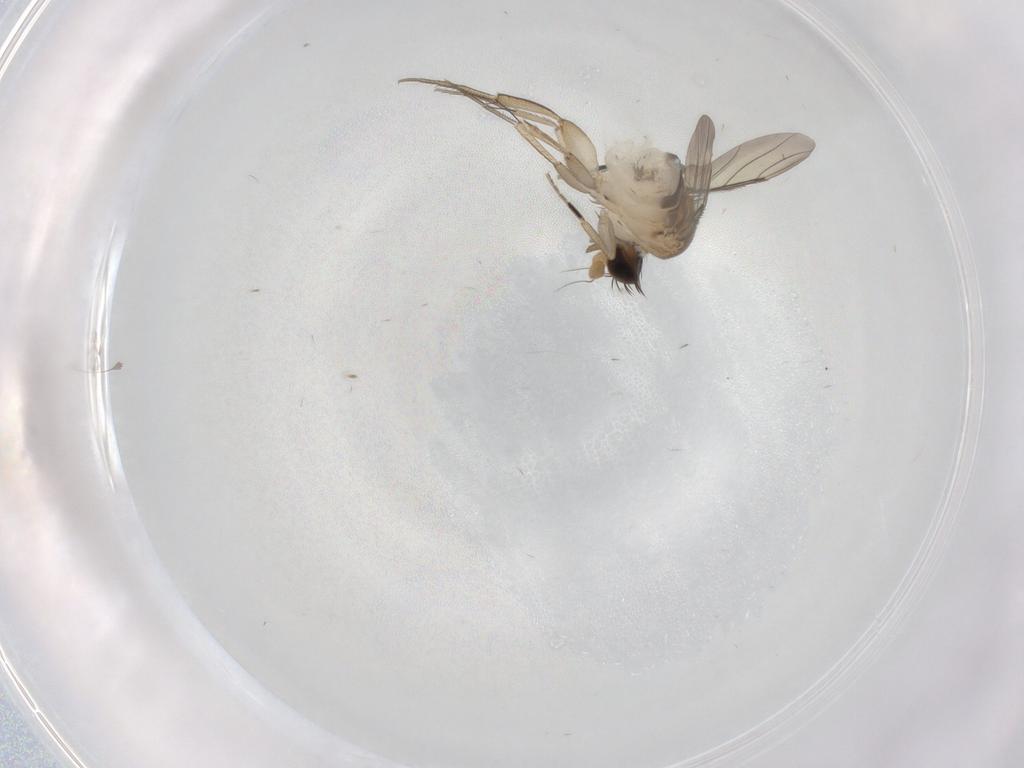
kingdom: Animalia
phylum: Arthropoda
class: Insecta
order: Diptera
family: Phoridae
